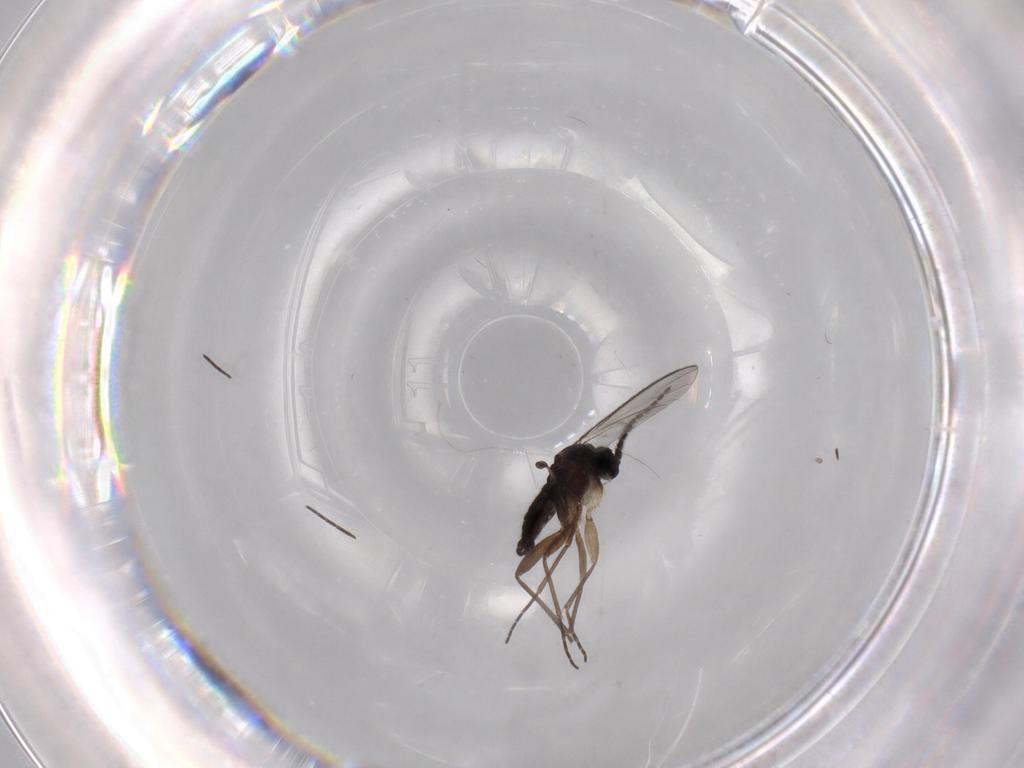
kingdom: Animalia
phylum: Arthropoda
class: Insecta
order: Diptera
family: Sciaridae
